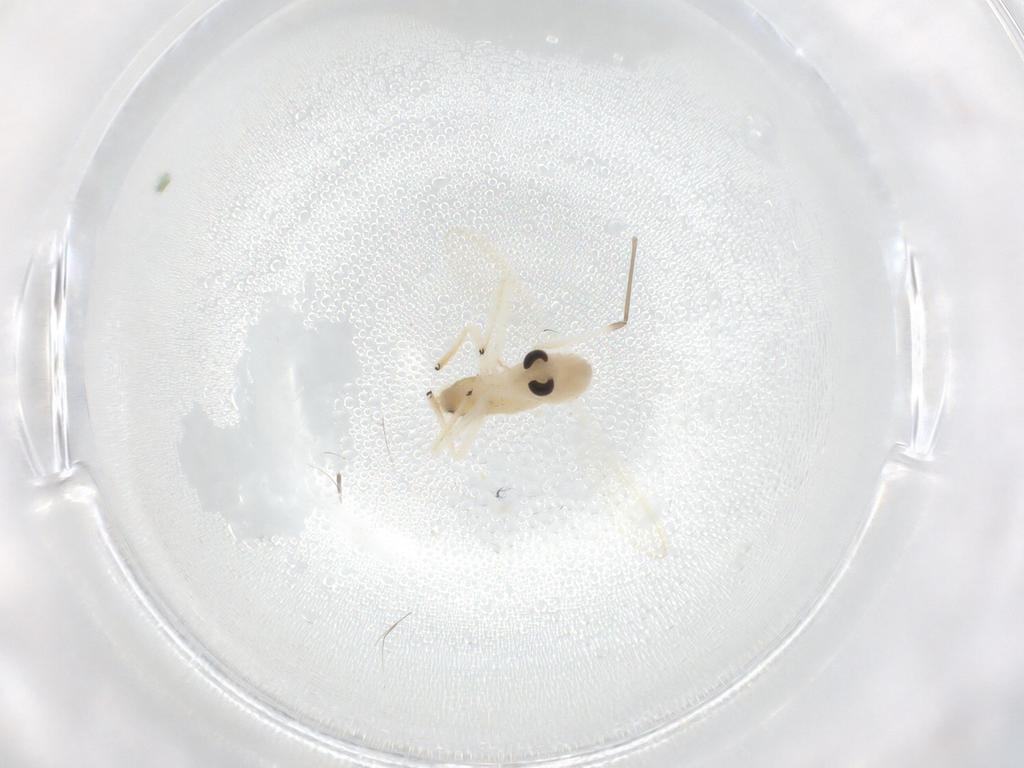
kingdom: Animalia
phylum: Arthropoda
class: Insecta
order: Diptera
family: Chironomidae
